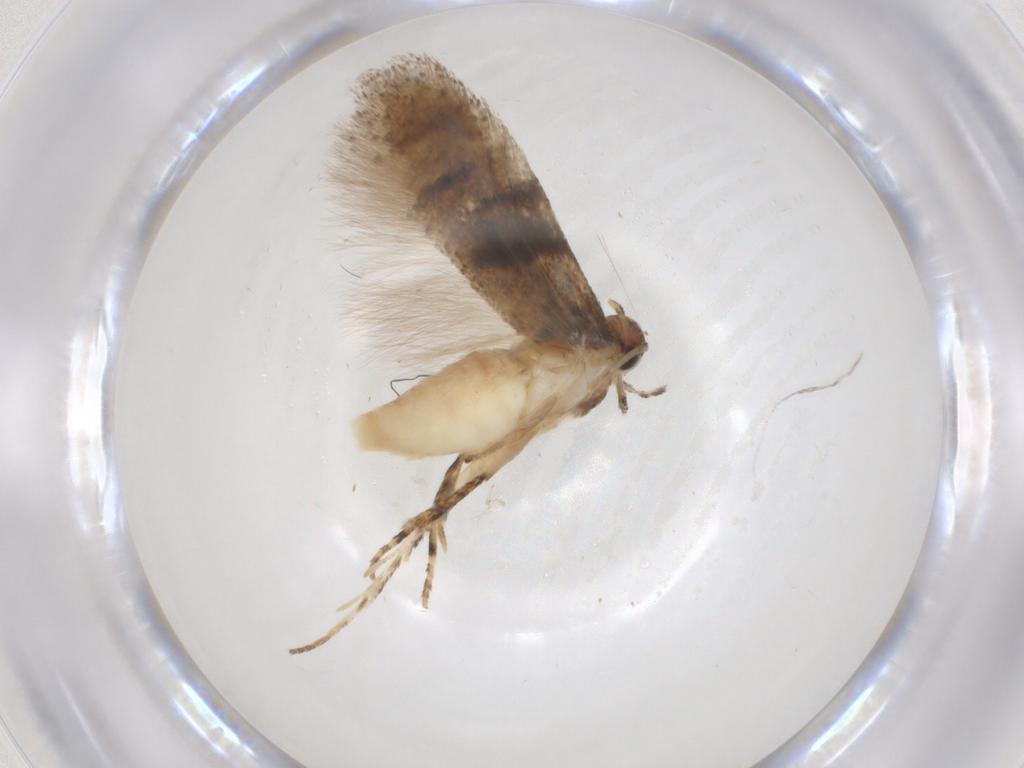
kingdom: Animalia
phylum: Arthropoda
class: Insecta
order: Lepidoptera
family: Gelechiidae
